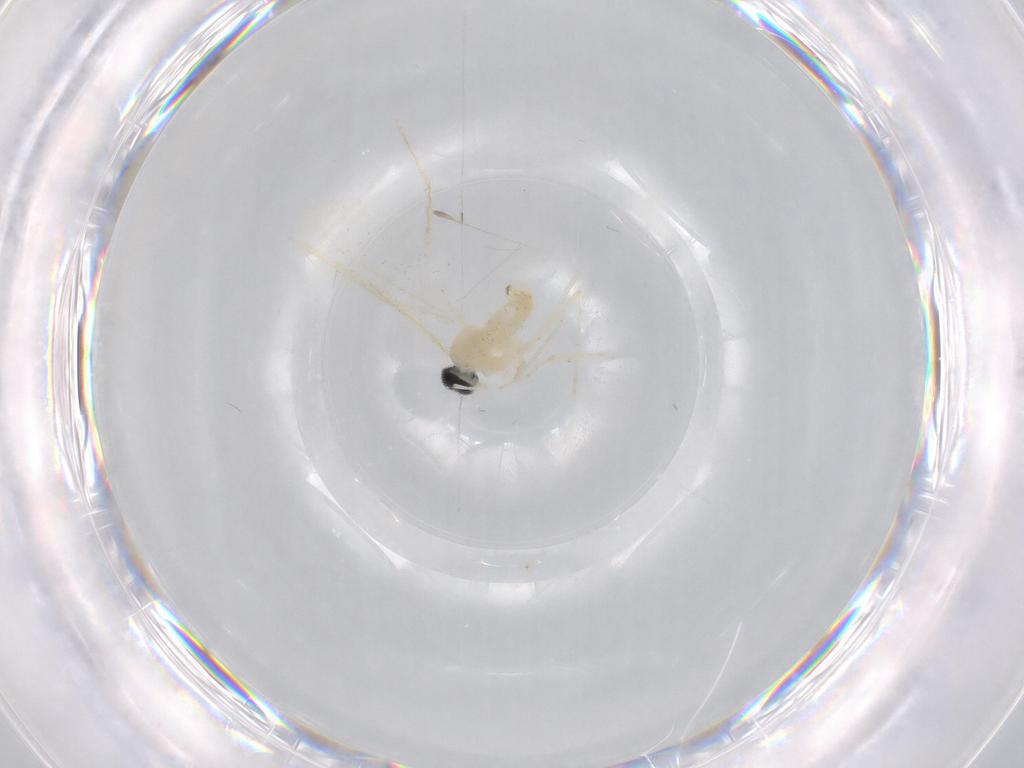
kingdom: Animalia
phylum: Arthropoda
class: Insecta
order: Diptera
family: Cecidomyiidae
